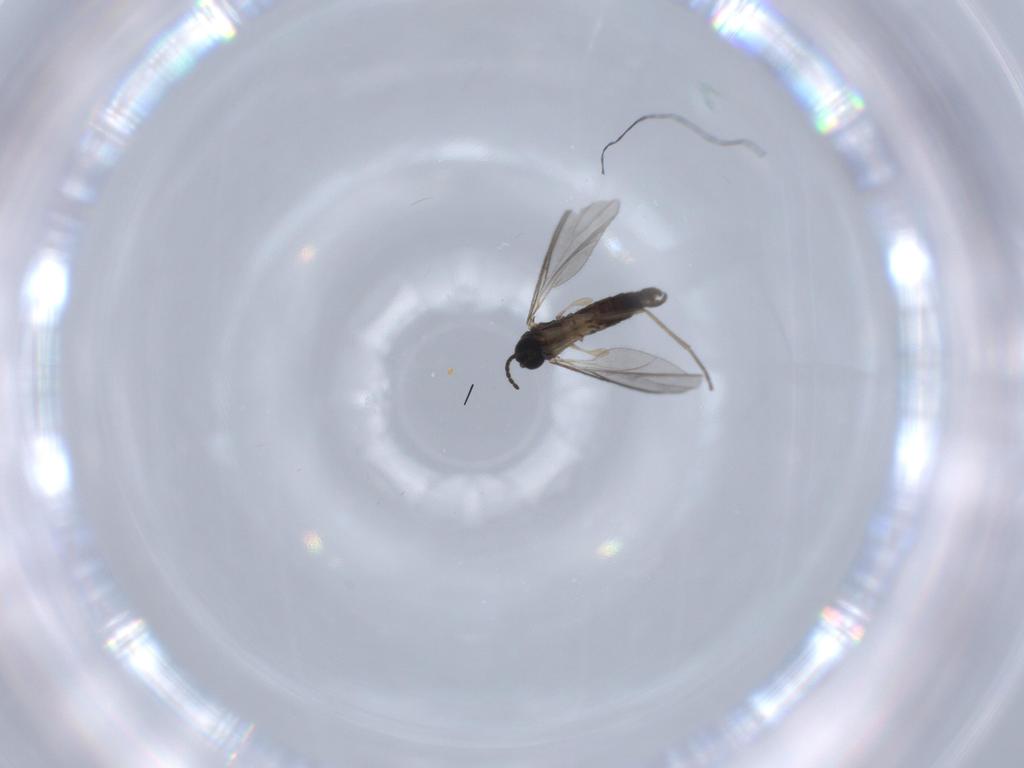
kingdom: Animalia
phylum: Arthropoda
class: Insecta
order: Diptera
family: Sciaridae
